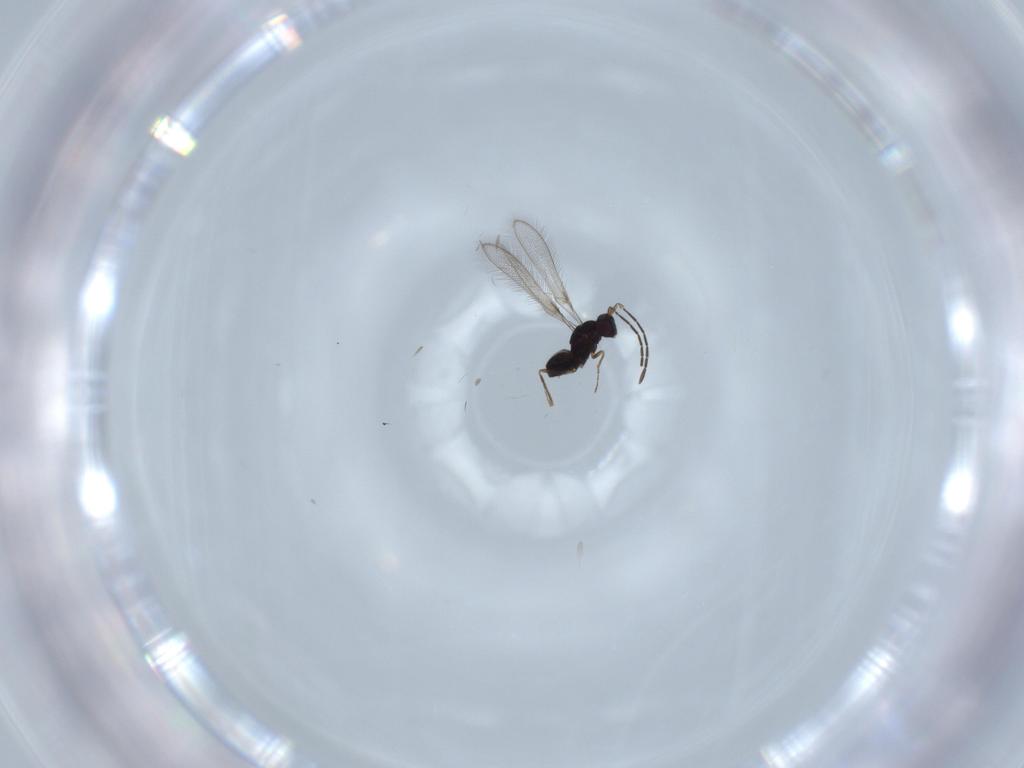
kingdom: Animalia
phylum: Arthropoda
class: Insecta
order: Hymenoptera
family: Mymaridae
